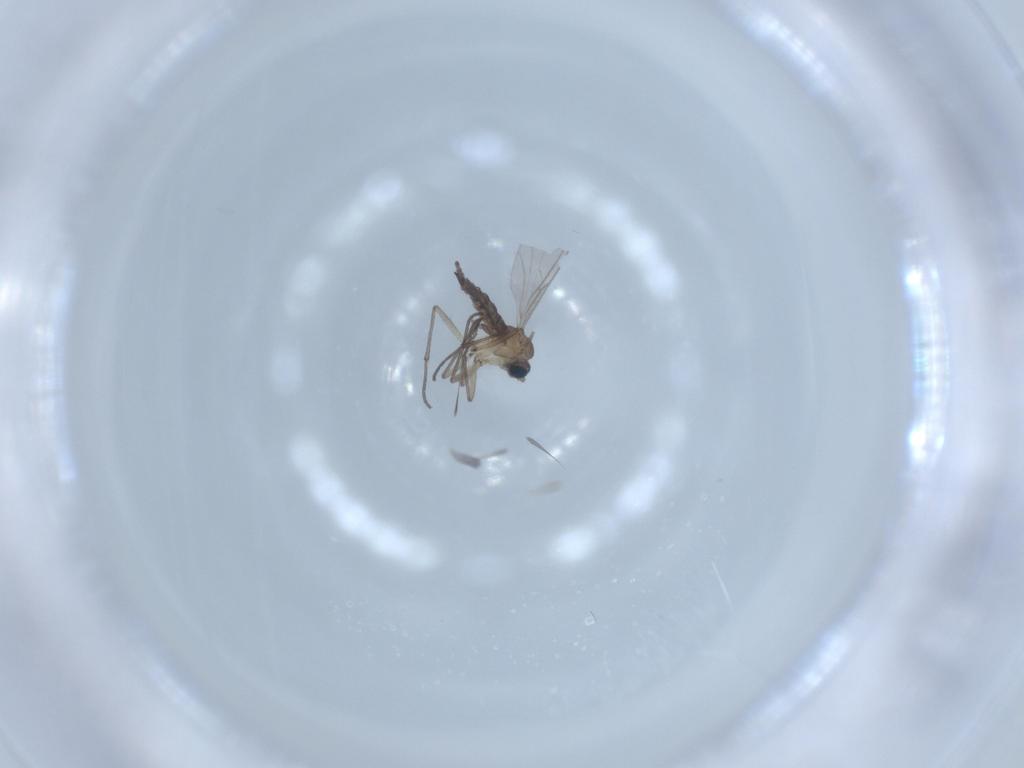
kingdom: Animalia
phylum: Arthropoda
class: Insecta
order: Diptera
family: Sciaridae
